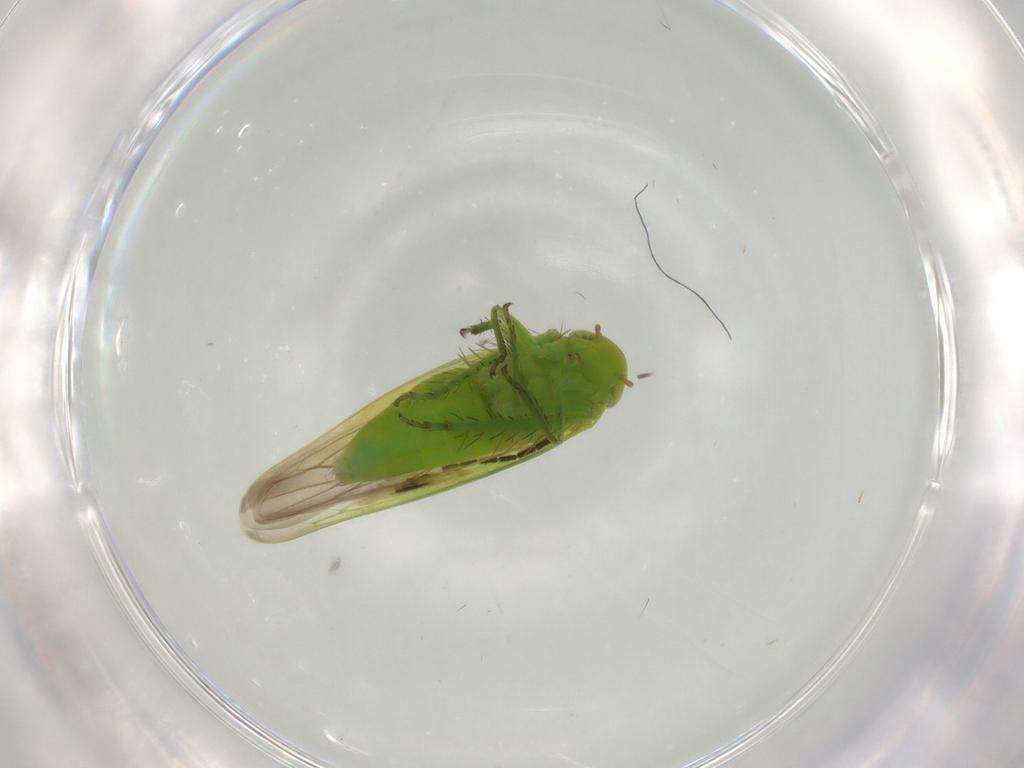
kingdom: Animalia
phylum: Arthropoda
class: Insecta
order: Hemiptera
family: Cicadellidae
